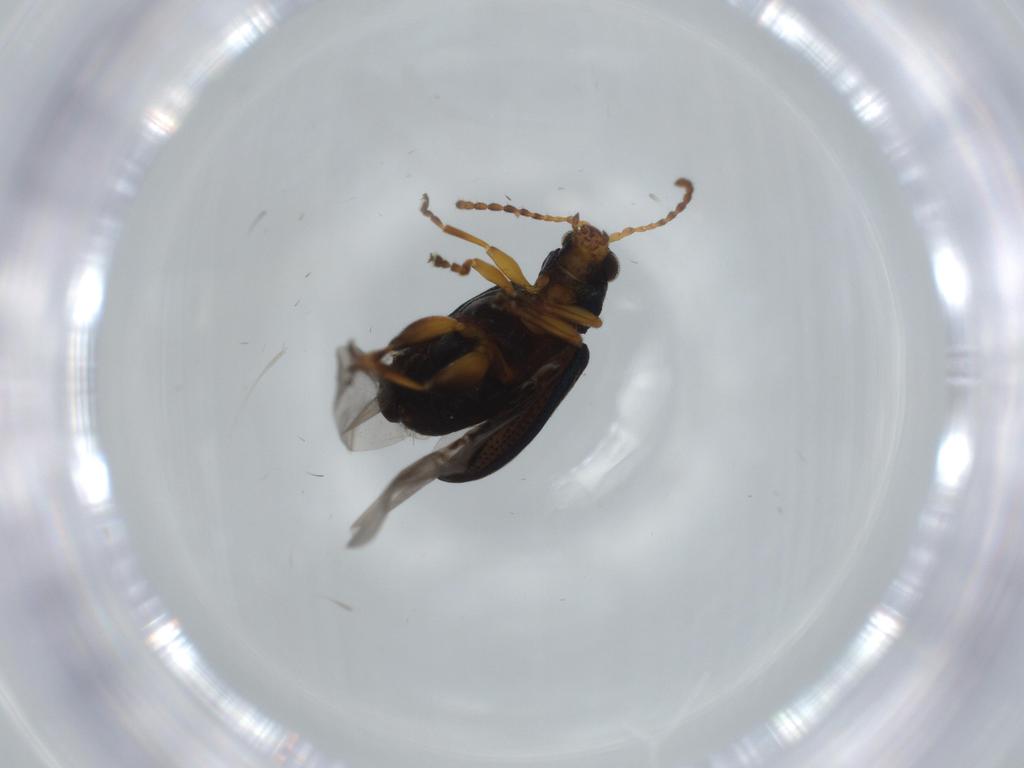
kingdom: Animalia
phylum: Arthropoda
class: Insecta
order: Coleoptera
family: Chrysomelidae
